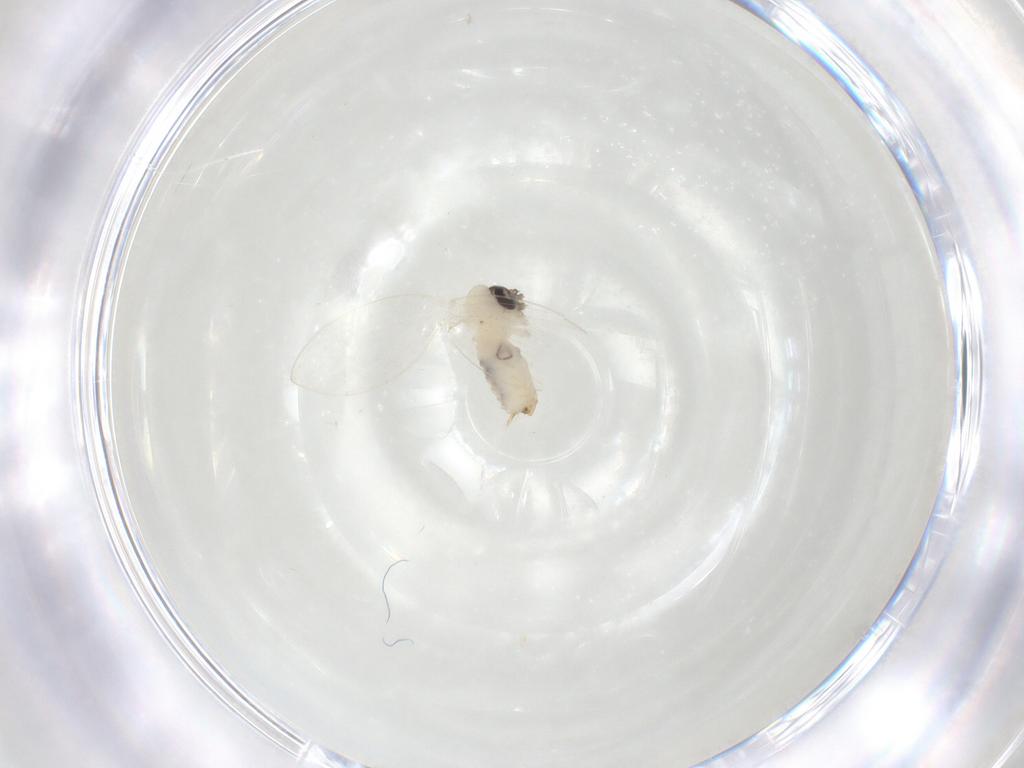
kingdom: Animalia
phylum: Arthropoda
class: Insecta
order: Diptera
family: Psychodidae
